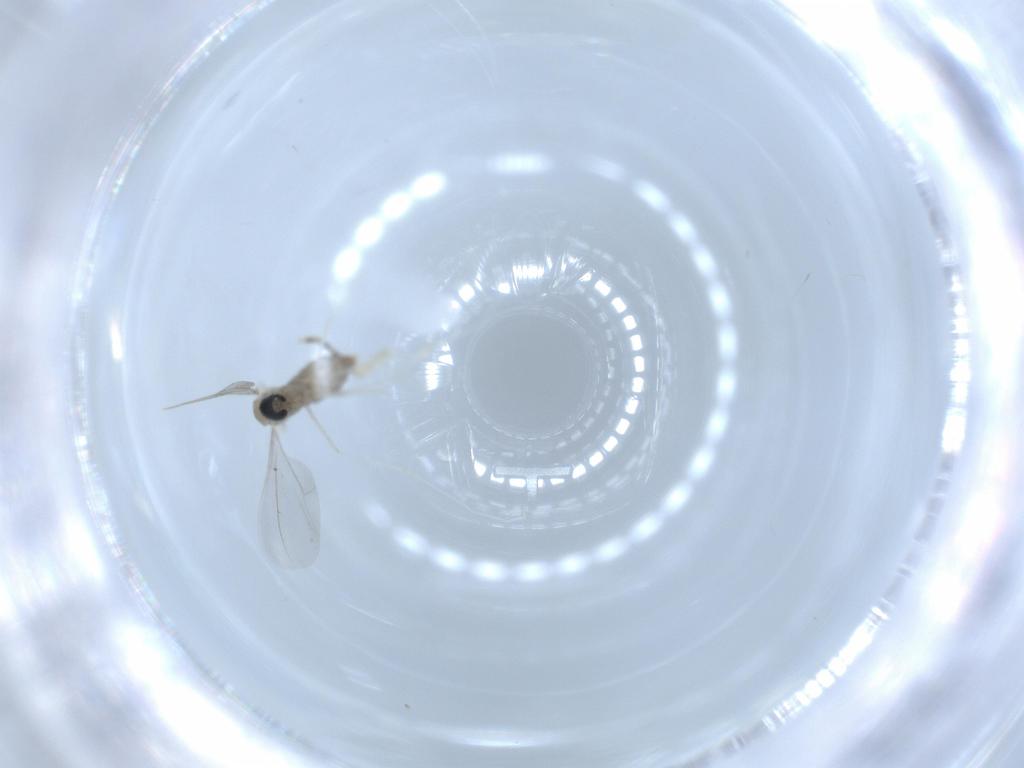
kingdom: Animalia
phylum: Arthropoda
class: Insecta
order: Diptera
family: Chironomidae
